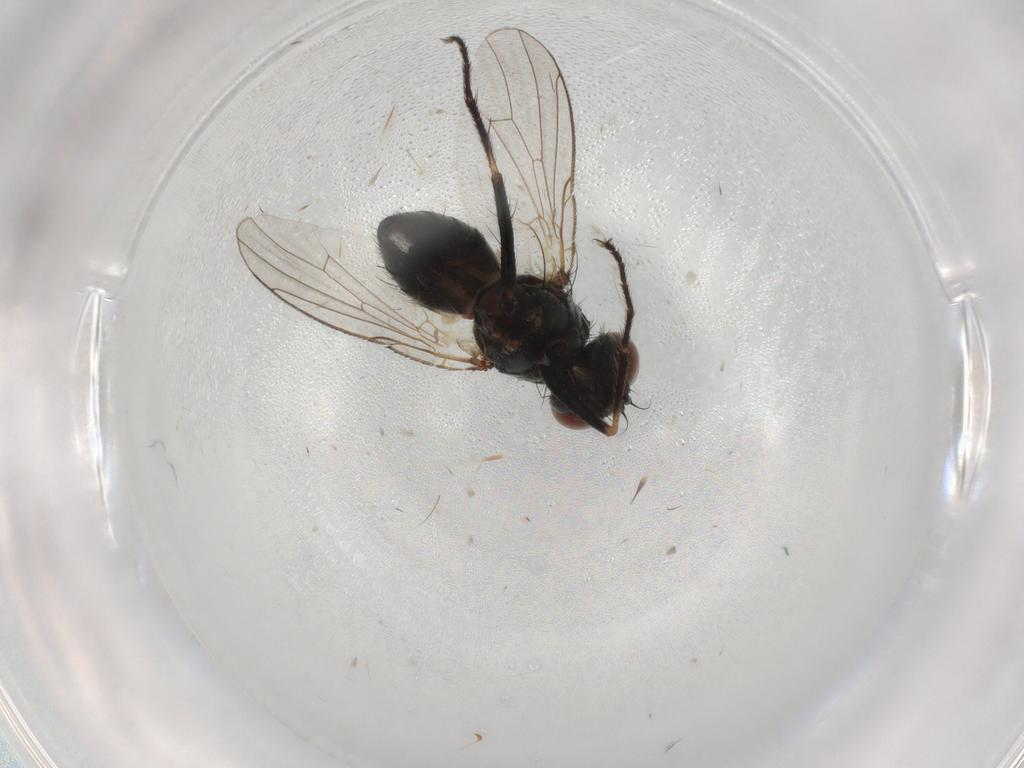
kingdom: Animalia
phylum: Arthropoda
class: Insecta
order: Diptera
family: Muscidae
